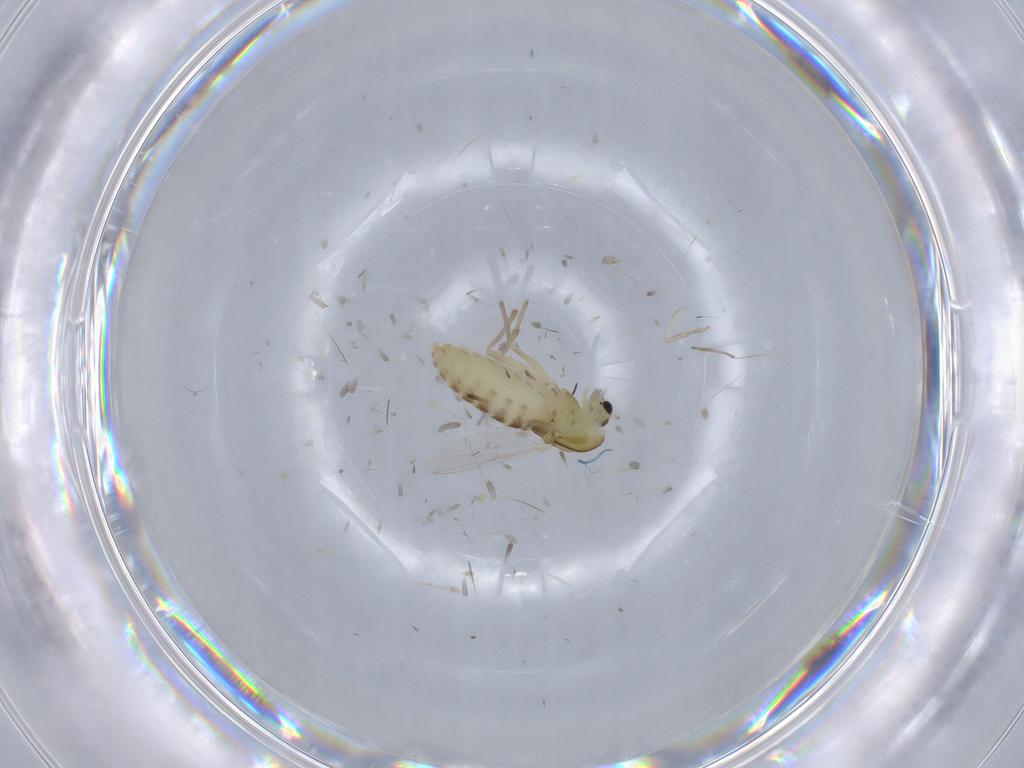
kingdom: Animalia
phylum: Arthropoda
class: Insecta
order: Diptera
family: Chironomidae
